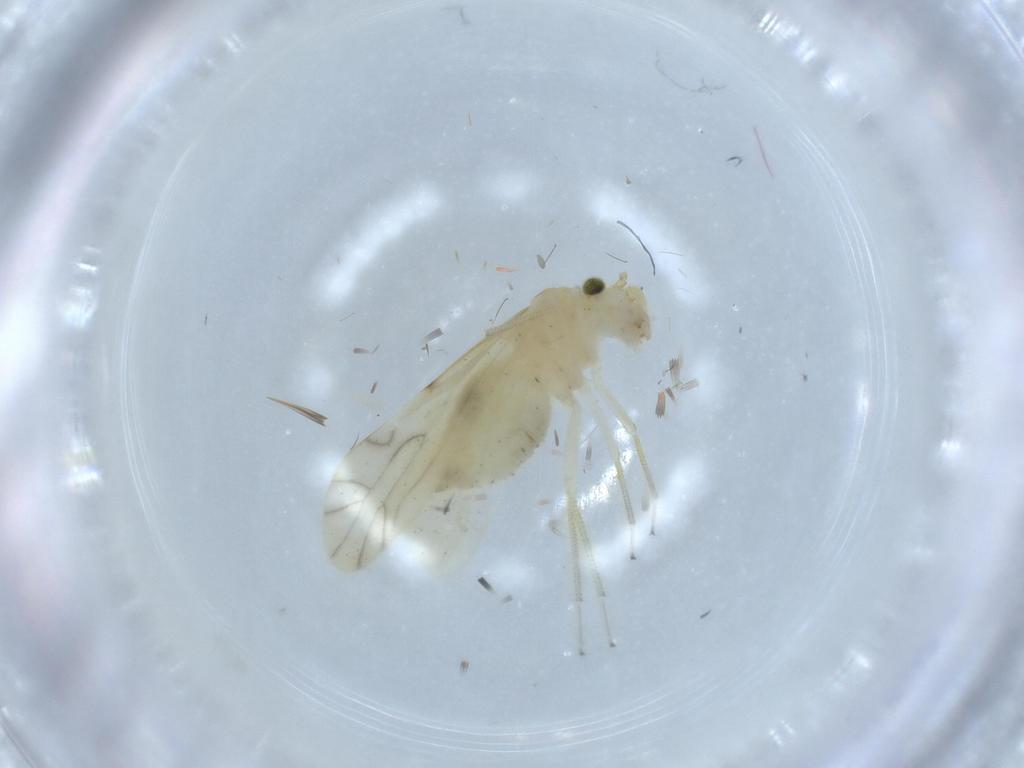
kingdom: Animalia
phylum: Arthropoda
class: Insecta
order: Psocodea
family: Caeciliusidae
